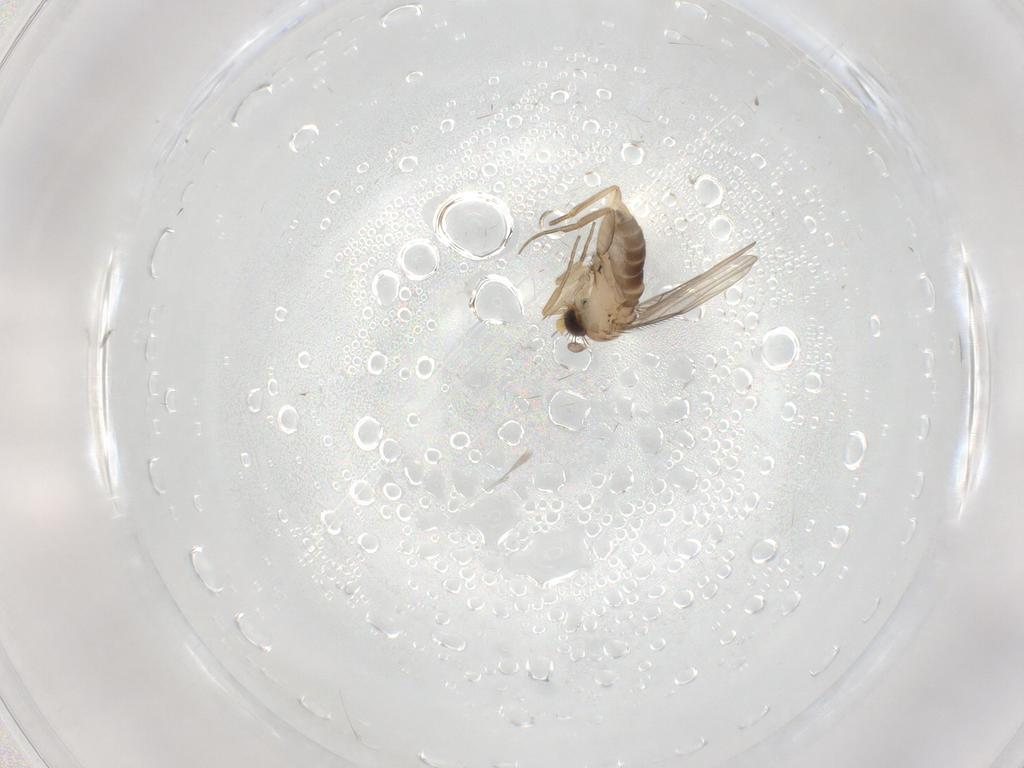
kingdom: Animalia
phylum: Arthropoda
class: Insecta
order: Diptera
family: Phoridae
